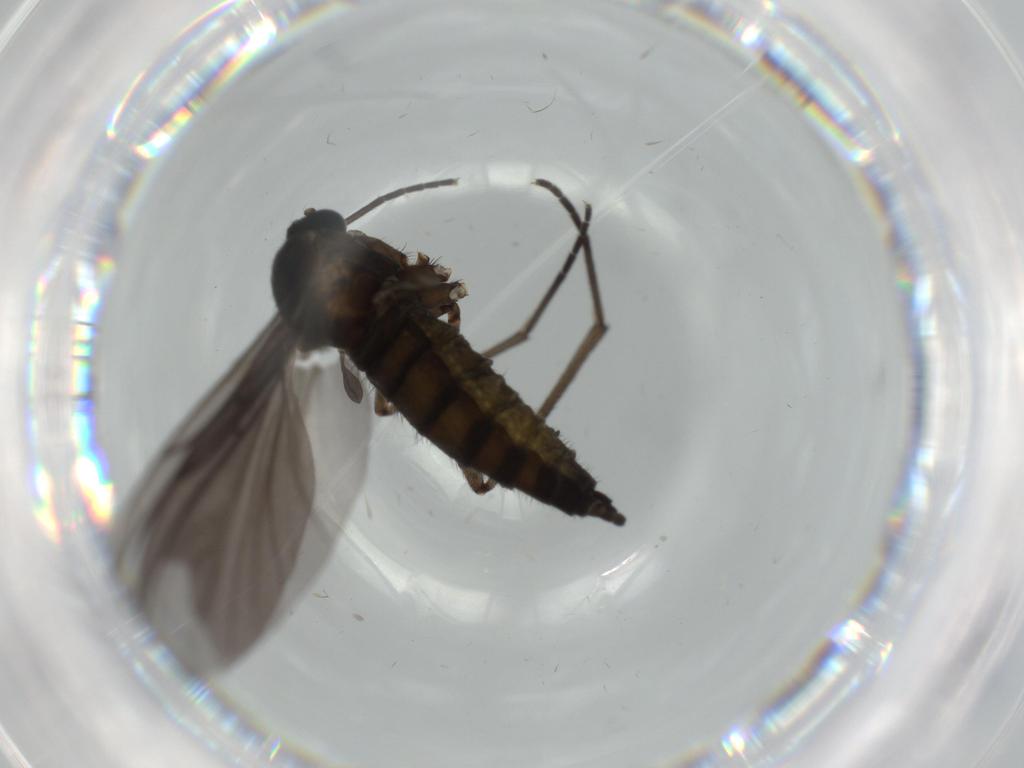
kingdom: Animalia
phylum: Arthropoda
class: Insecta
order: Diptera
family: Sciaridae
